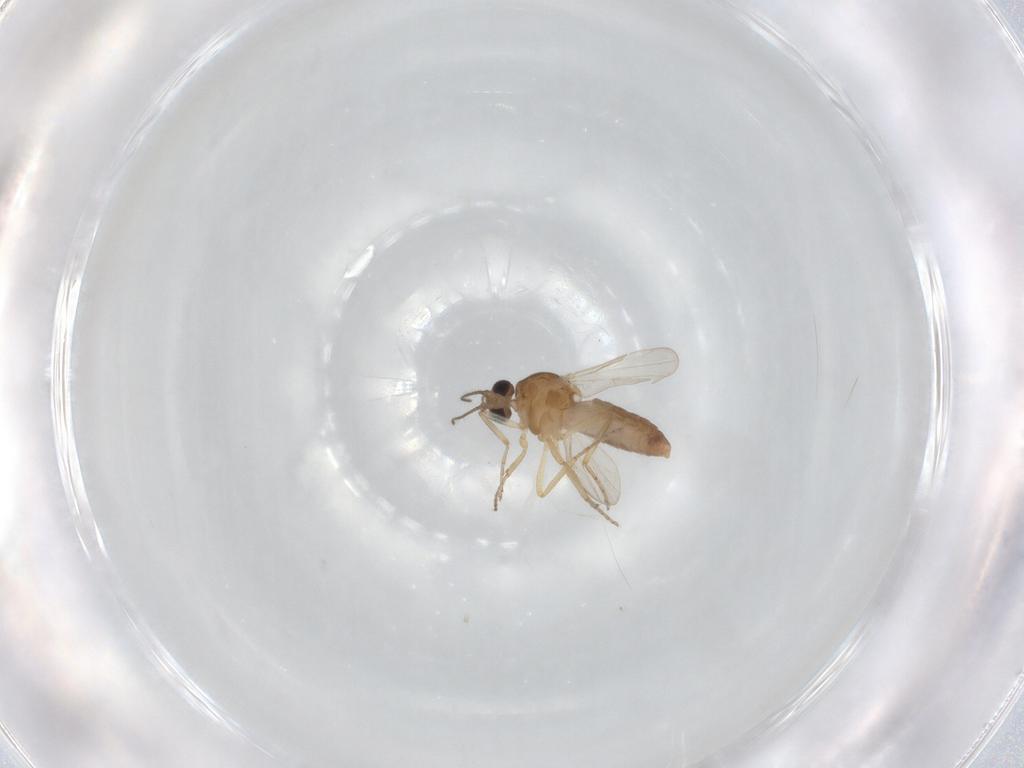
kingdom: Animalia
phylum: Arthropoda
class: Insecta
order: Diptera
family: Ceratopogonidae
